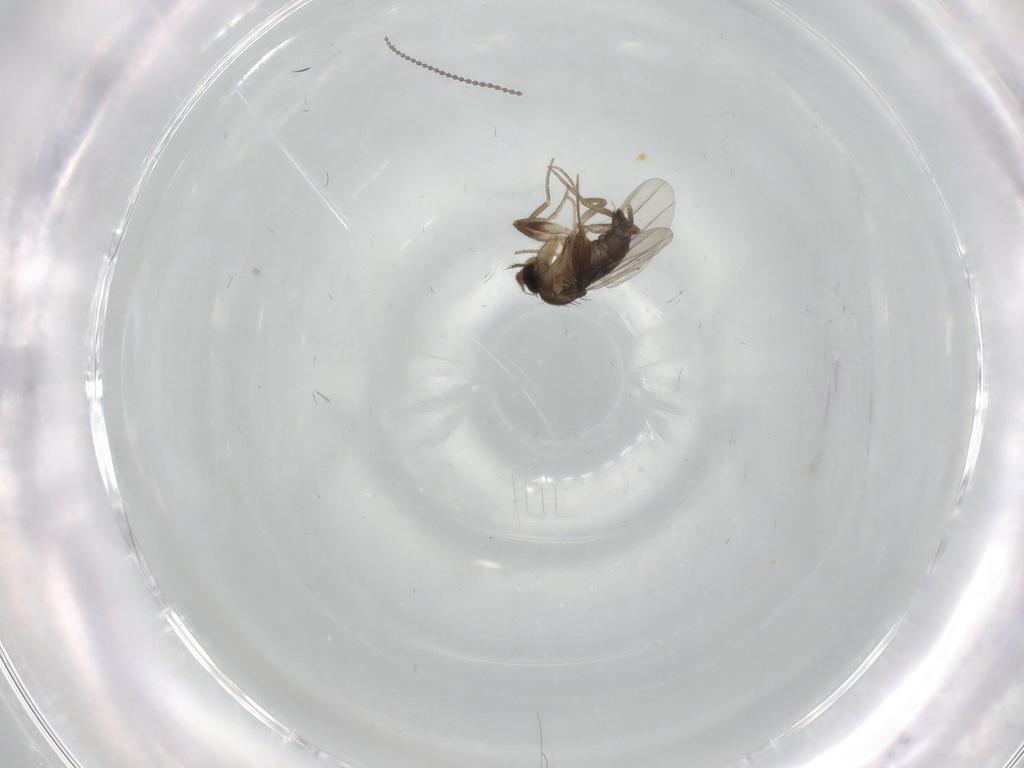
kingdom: Animalia
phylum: Arthropoda
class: Insecta
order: Diptera
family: Phoridae
